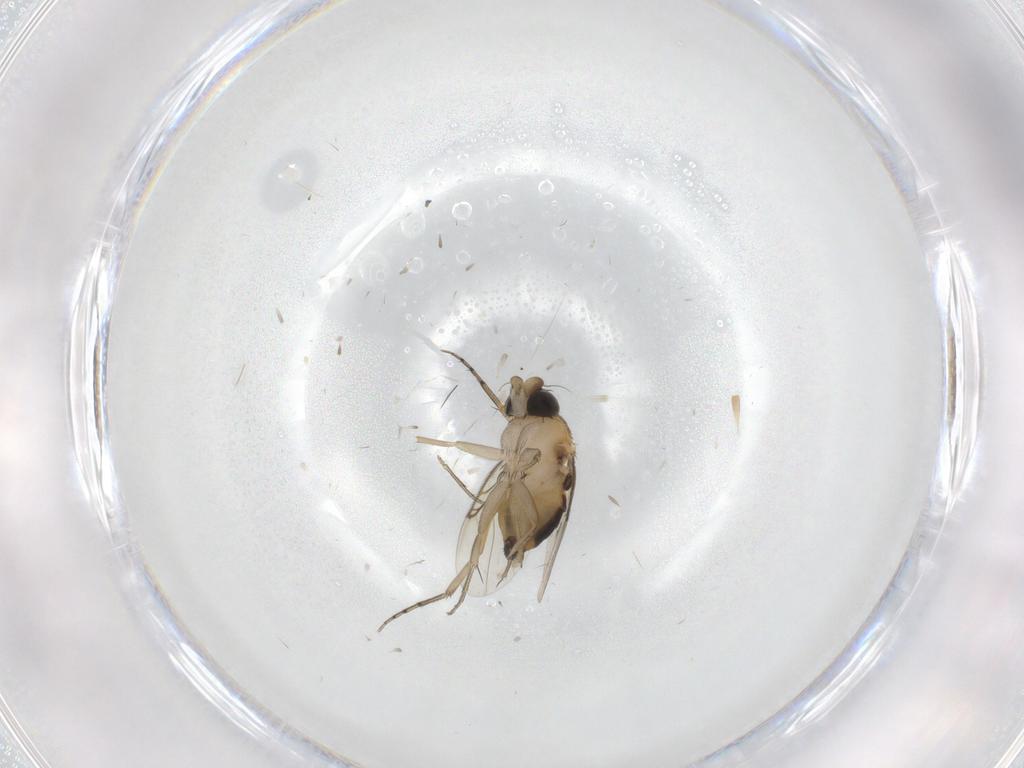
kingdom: Animalia
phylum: Arthropoda
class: Insecta
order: Diptera
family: Phoridae
